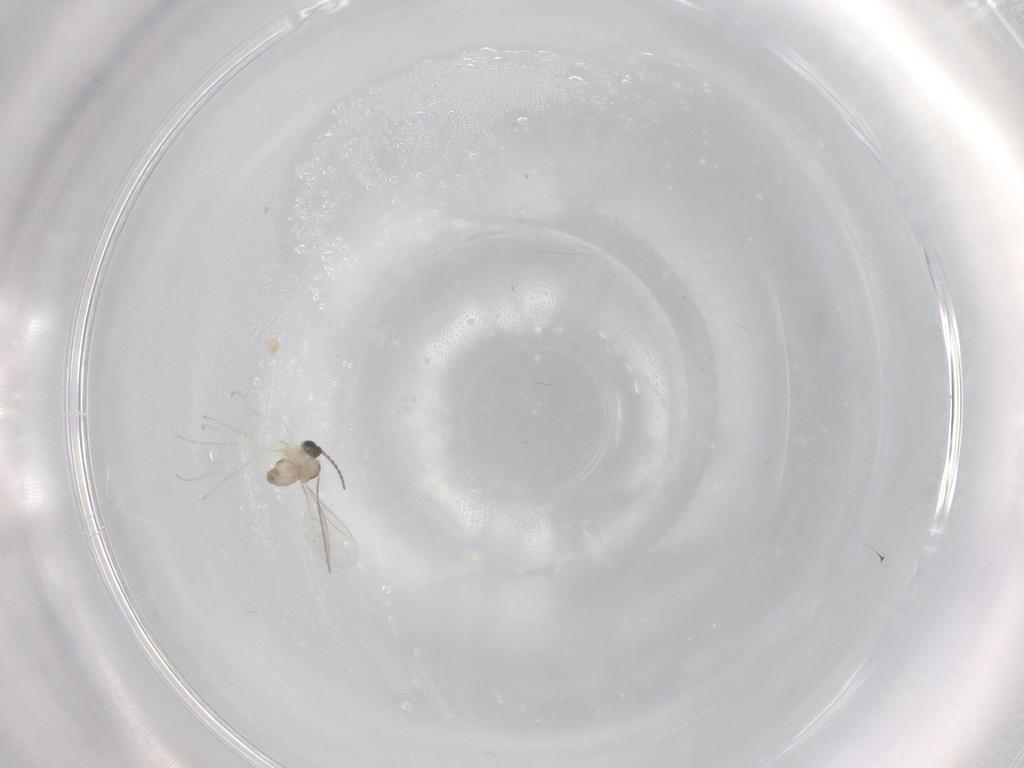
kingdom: Animalia
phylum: Arthropoda
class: Insecta
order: Diptera
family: Cecidomyiidae
